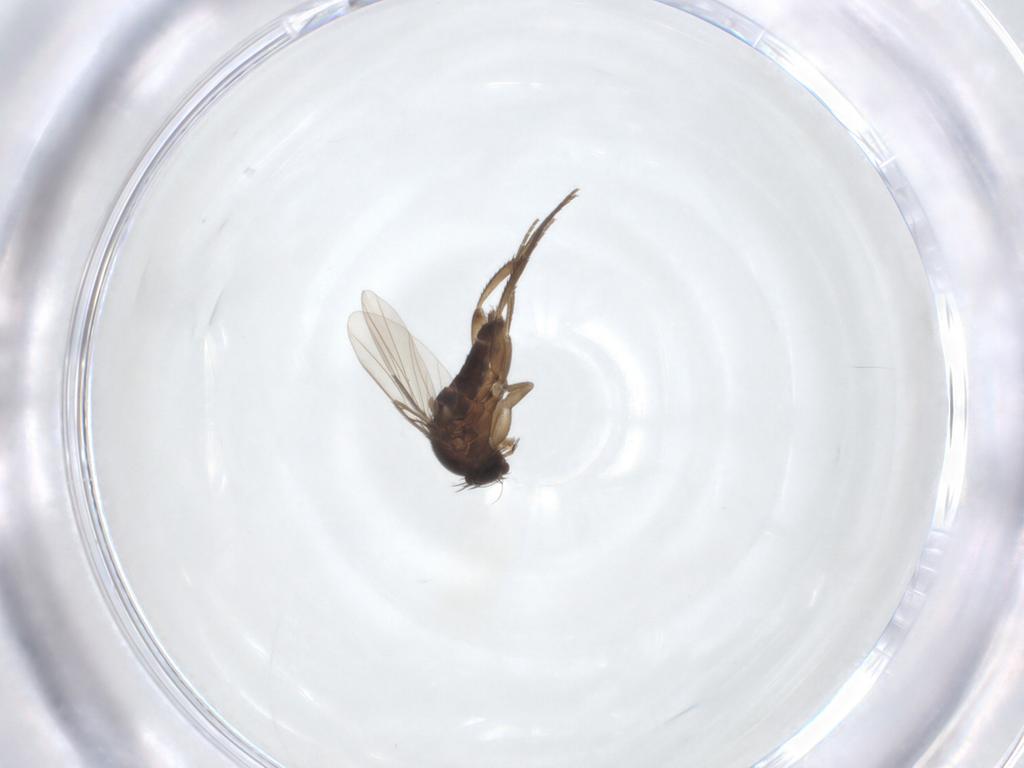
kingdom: Animalia
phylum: Arthropoda
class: Insecta
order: Diptera
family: Phoridae
